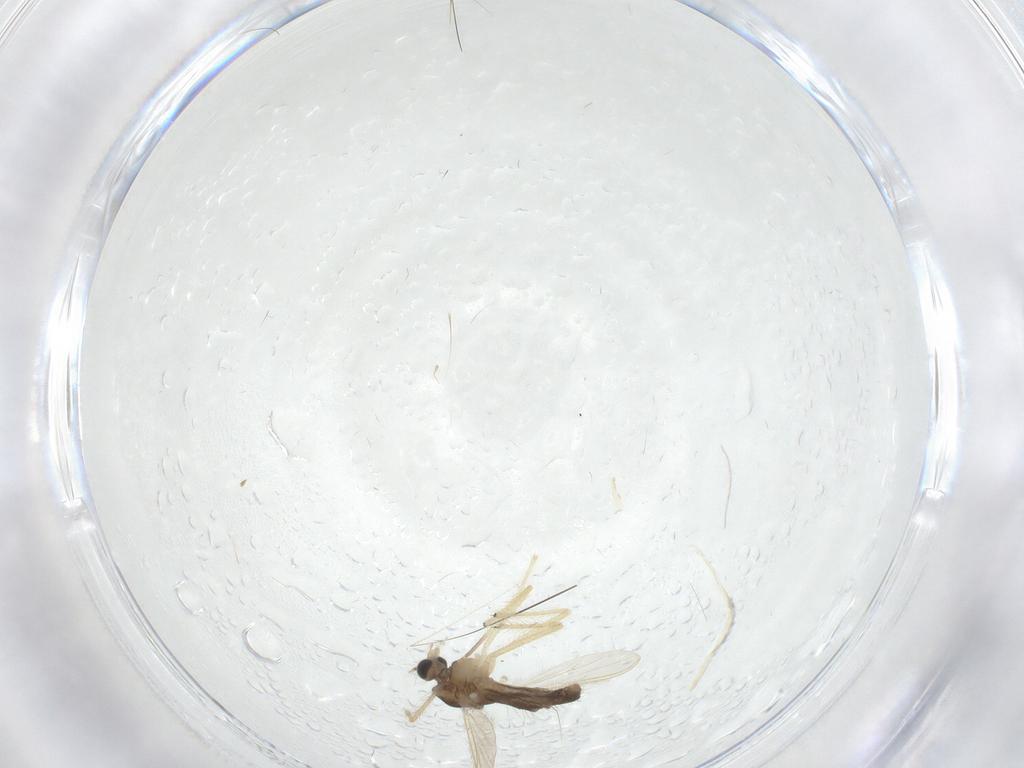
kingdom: Animalia
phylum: Arthropoda
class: Insecta
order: Diptera
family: Chironomidae
